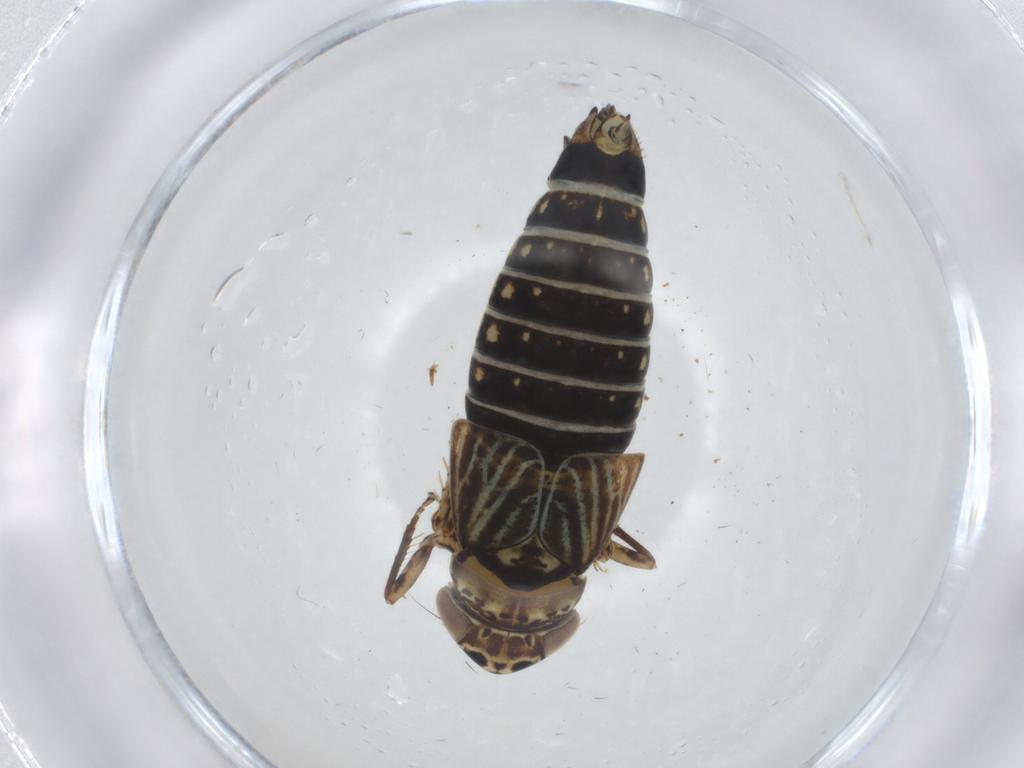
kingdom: Animalia
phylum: Arthropoda
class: Insecta
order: Hemiptera
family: Cicadellidae
